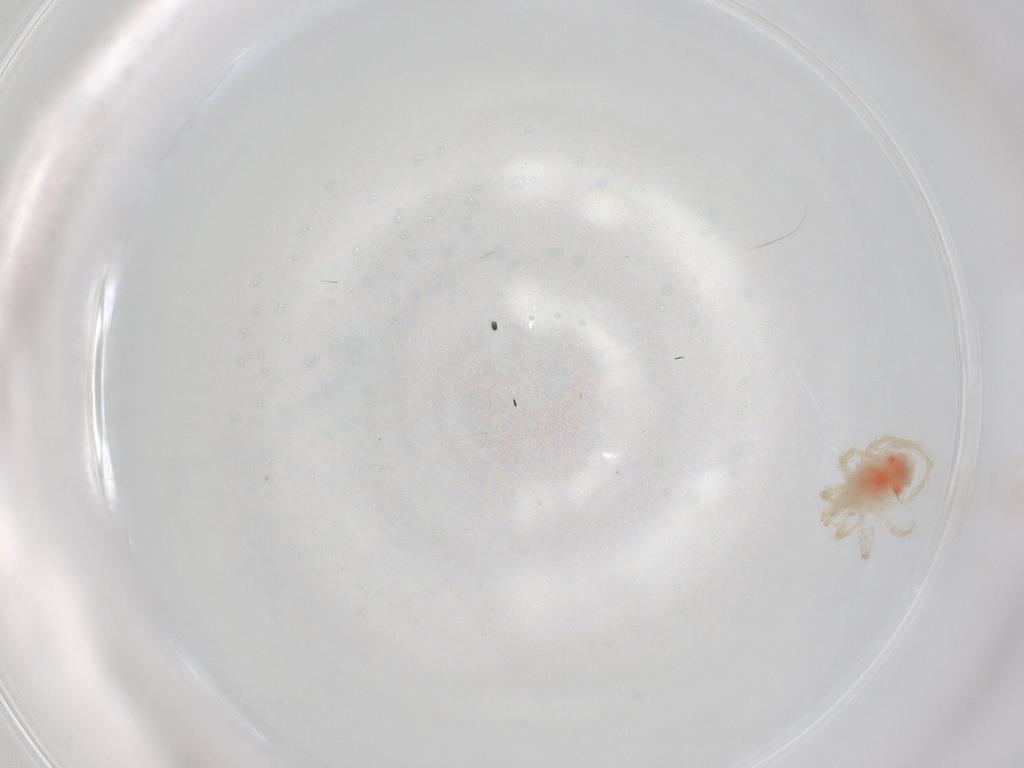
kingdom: Animalia
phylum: Arthropoda
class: Arachnida
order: Trombidiformes
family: Anystidae
